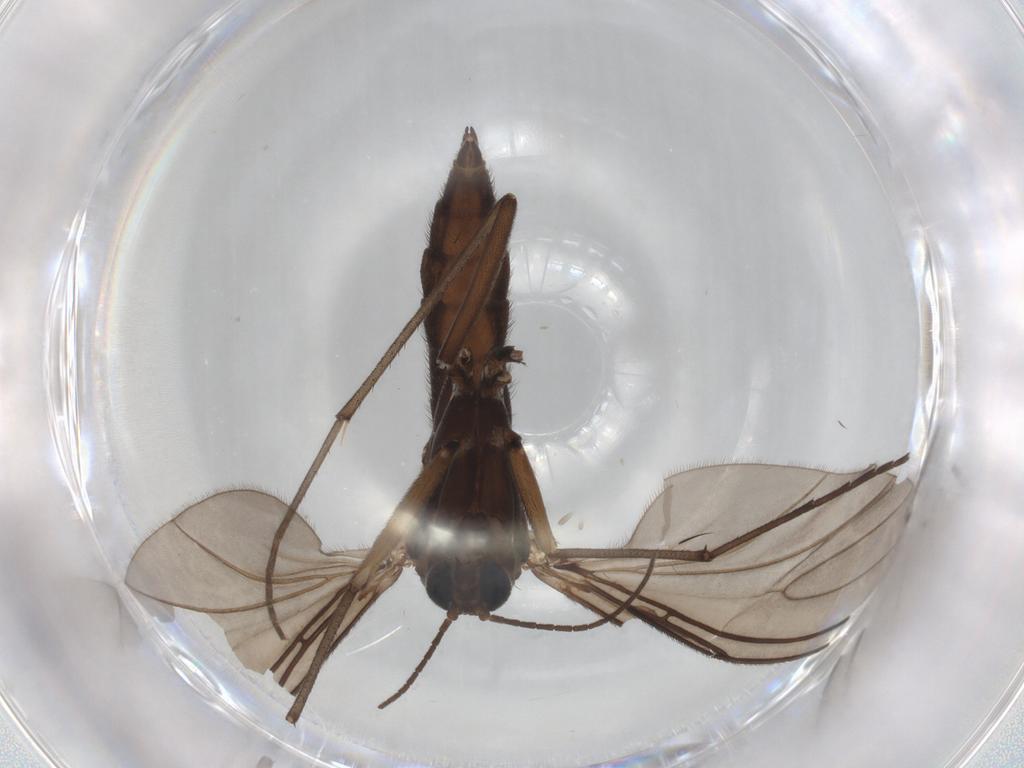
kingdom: Animalia
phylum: Arthropoda
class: Insecta
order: Diptera
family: Sciaridae
